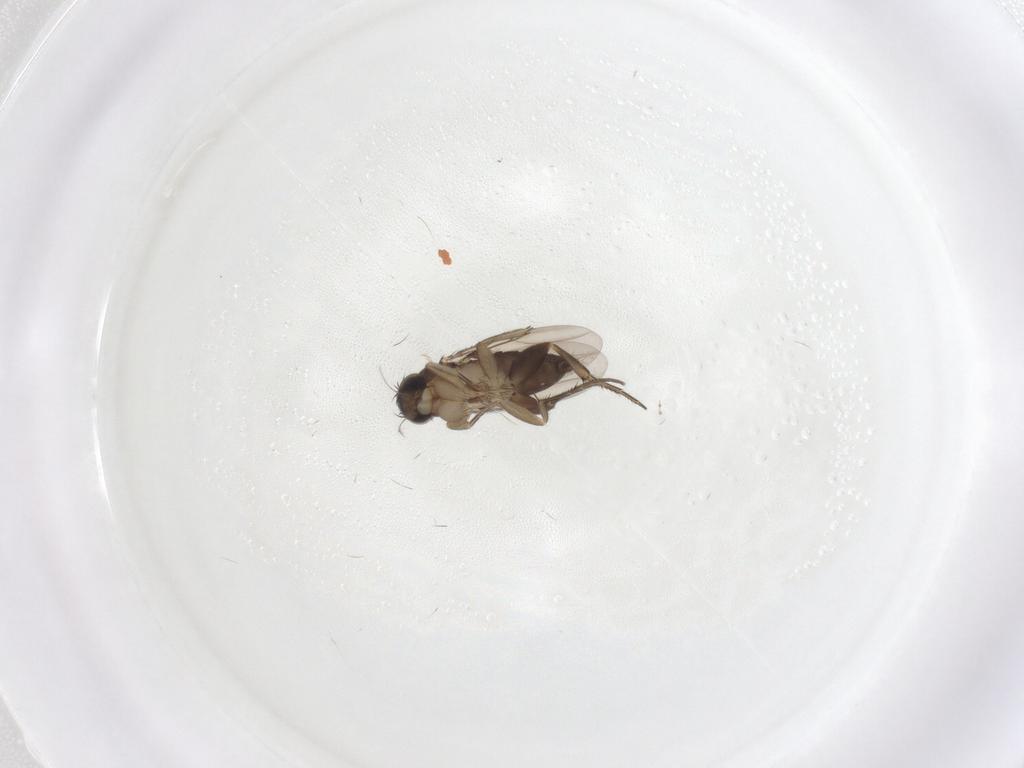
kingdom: Animalia
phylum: Arthropoda
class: Insecta
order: Diptera
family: Phoridae
